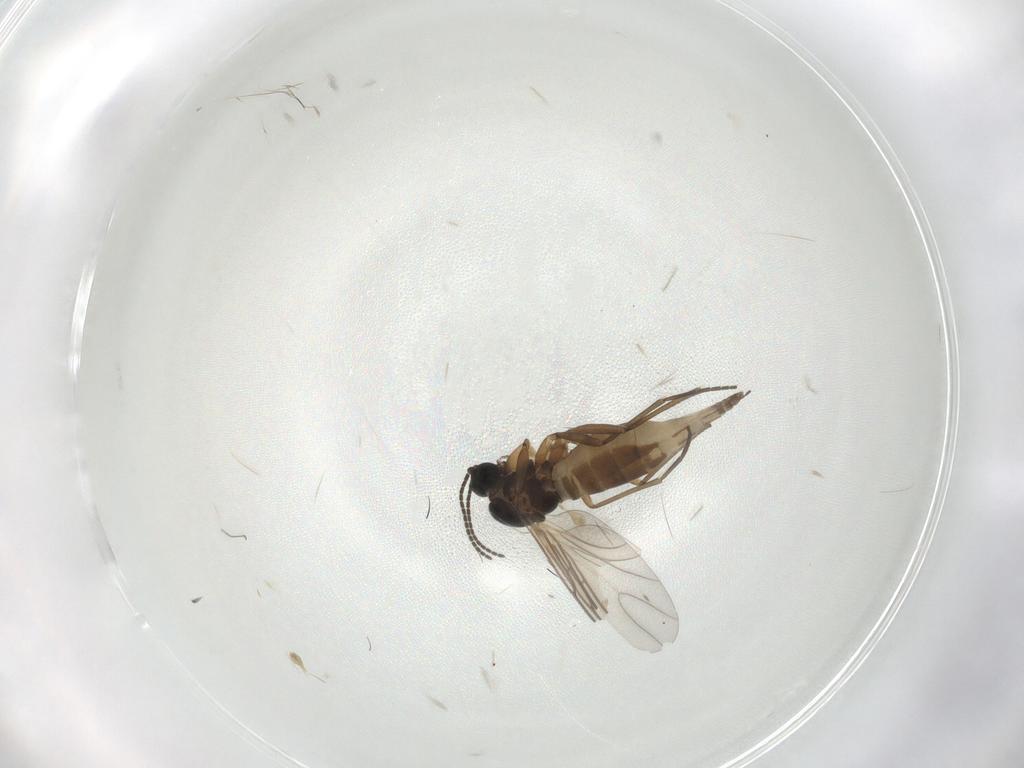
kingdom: Animalia
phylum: Arthropoda
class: Insecta
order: Diptera
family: Sciaridae
